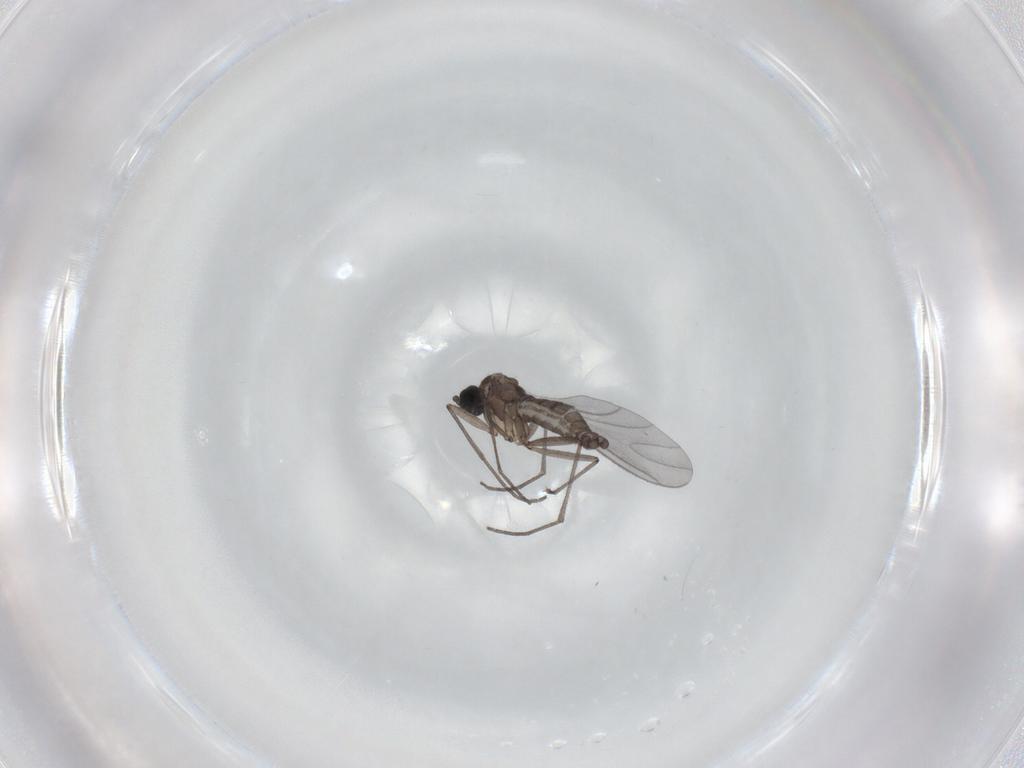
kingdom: Animalia
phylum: Arthropoda
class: Insecta
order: Diptera
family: Sciaridae
